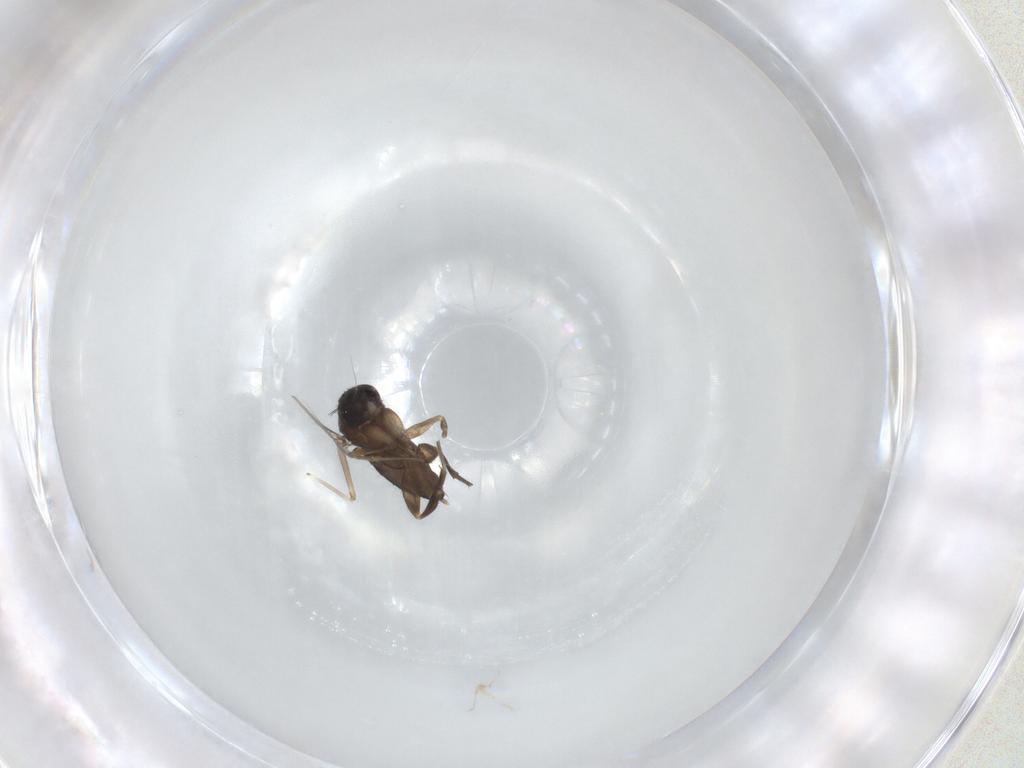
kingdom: Animalia
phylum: Arthropoda
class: Insecta
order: Diptera
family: Phoridae
